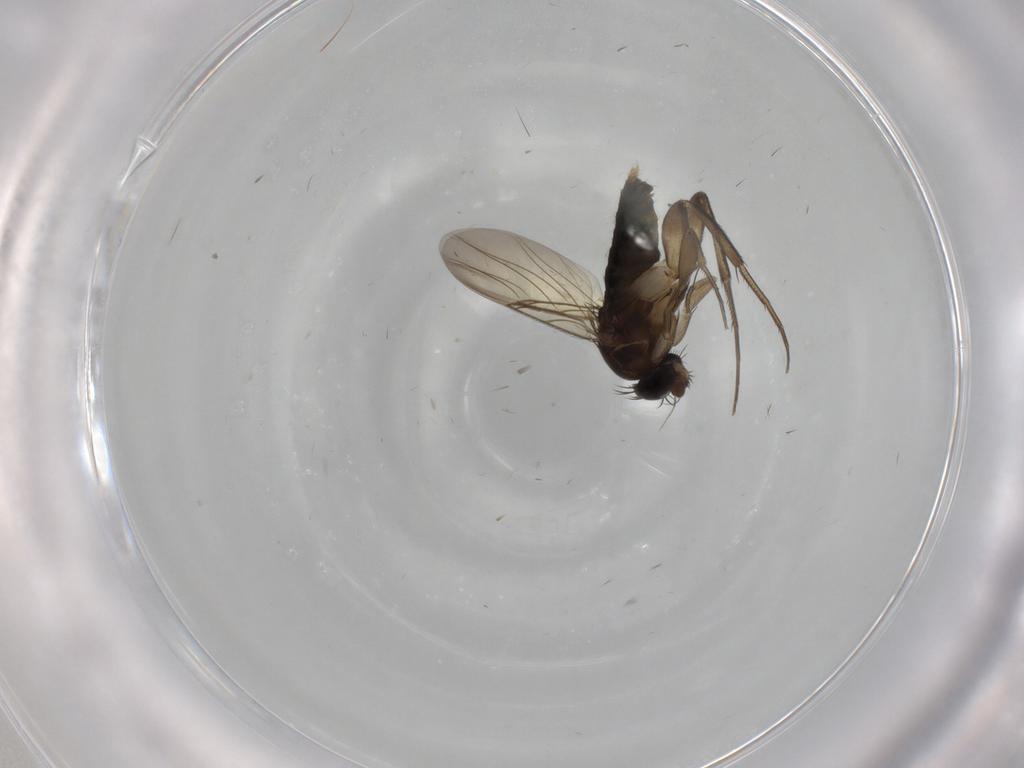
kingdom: Animalia
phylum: Arthropoda
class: Insecta
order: Diptera
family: Phoridae
